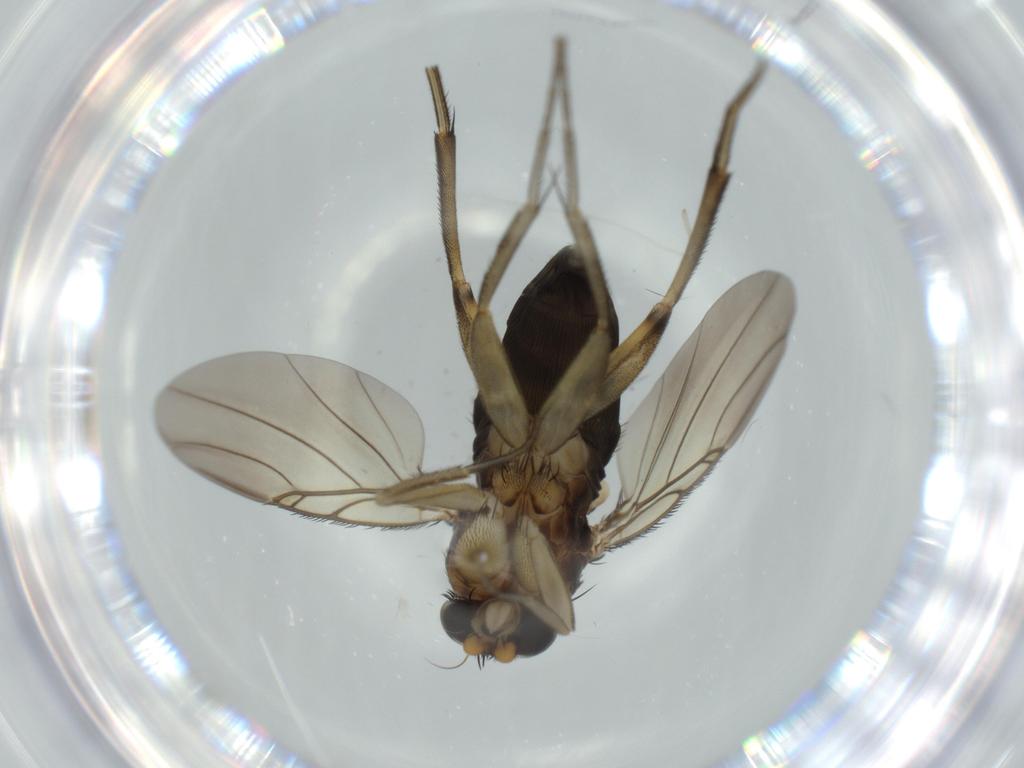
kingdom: Animalia
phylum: Arthropoda
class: Insecta
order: Diptera
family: Phoridae
